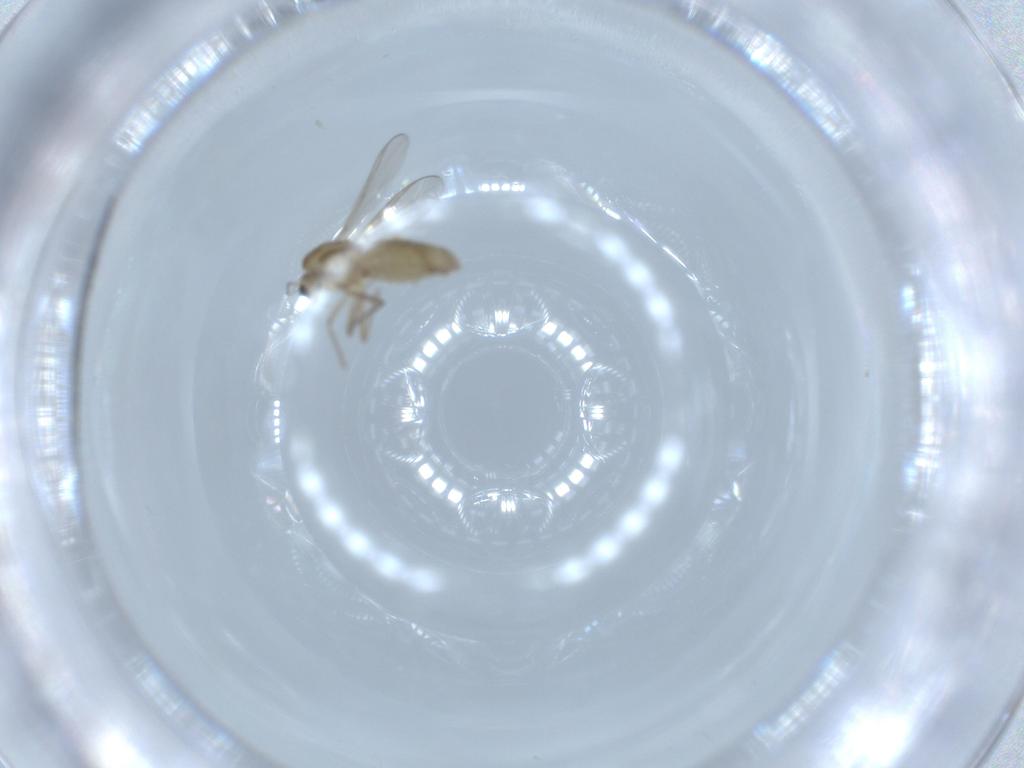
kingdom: Animalia
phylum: Arthropoda
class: Insecta
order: Diptera
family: Chironomidae
